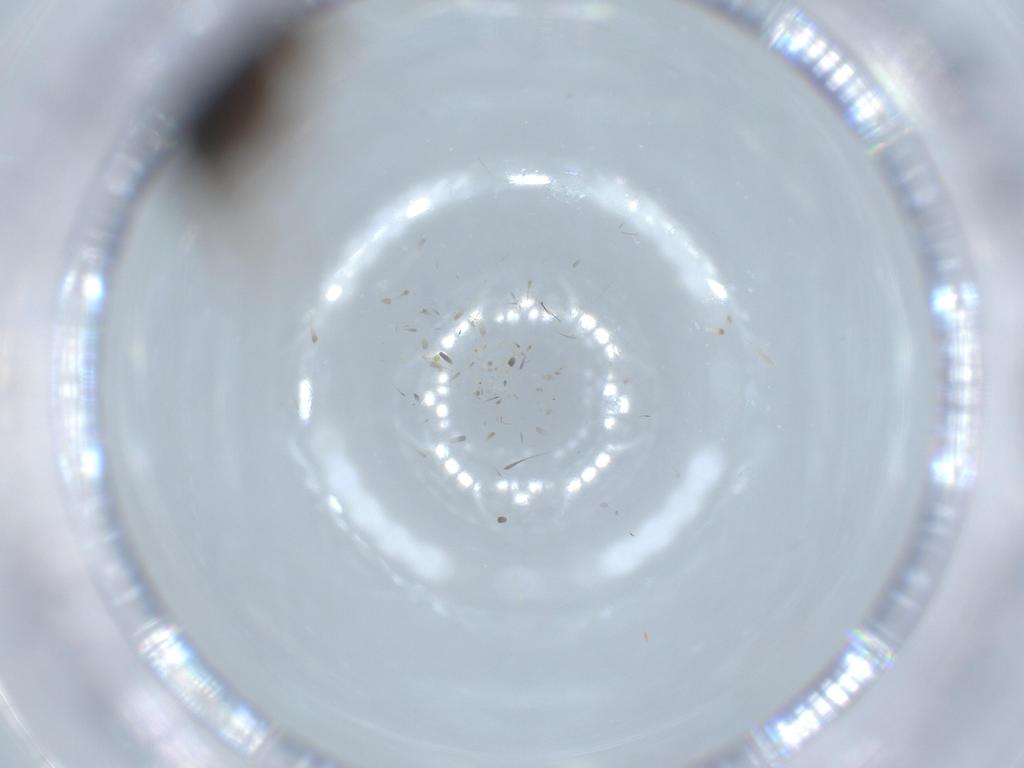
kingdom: Animalia
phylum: Arthropoda
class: Insecta
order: Coleoptera
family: Aderidae
